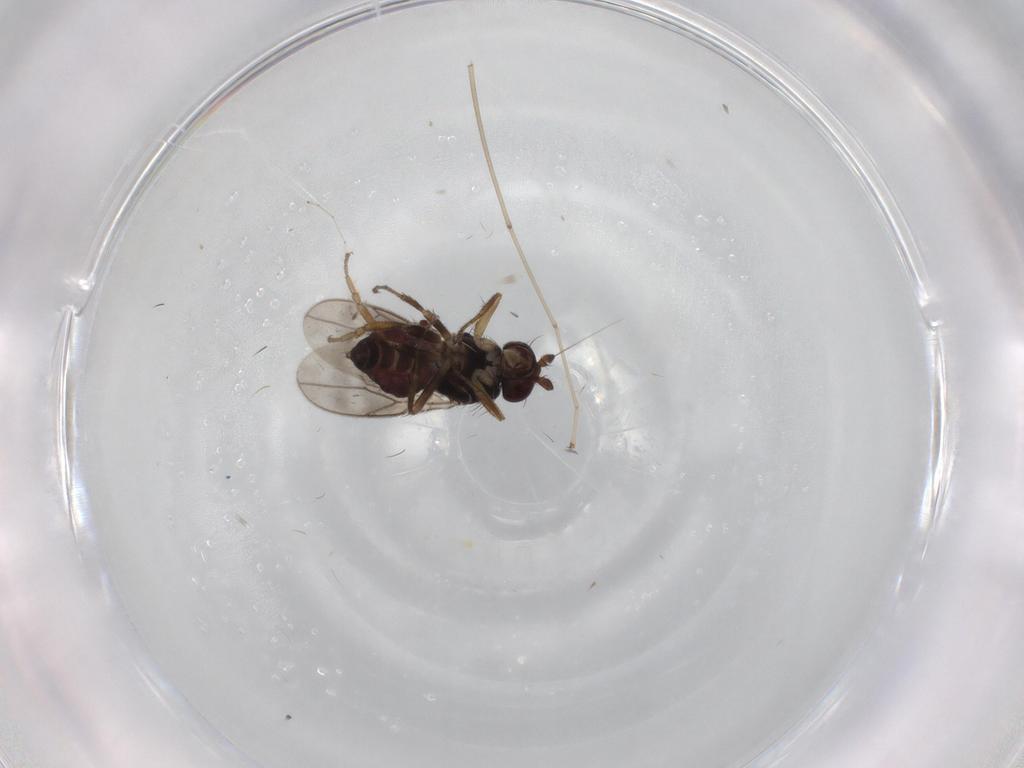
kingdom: Animalia
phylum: Arthropoda
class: Insecta
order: Diptera
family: Sphaeroceridae
